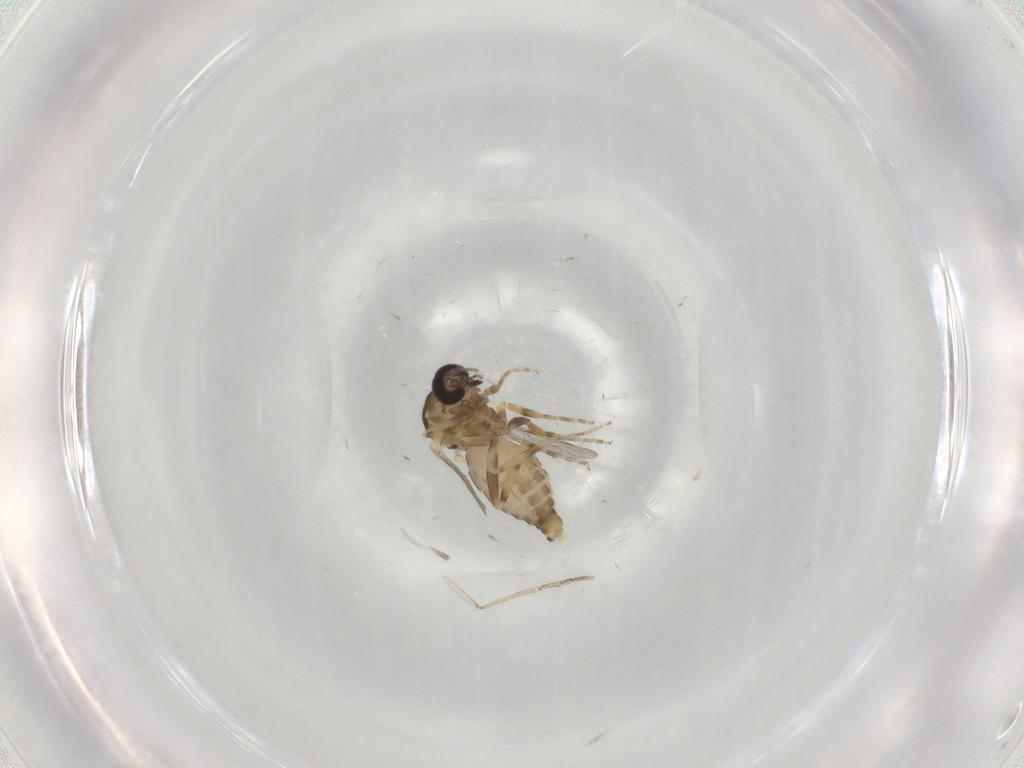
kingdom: Animalia
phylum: Arthropoda
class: Insecta
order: Diptera
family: Ceratopogonidae
